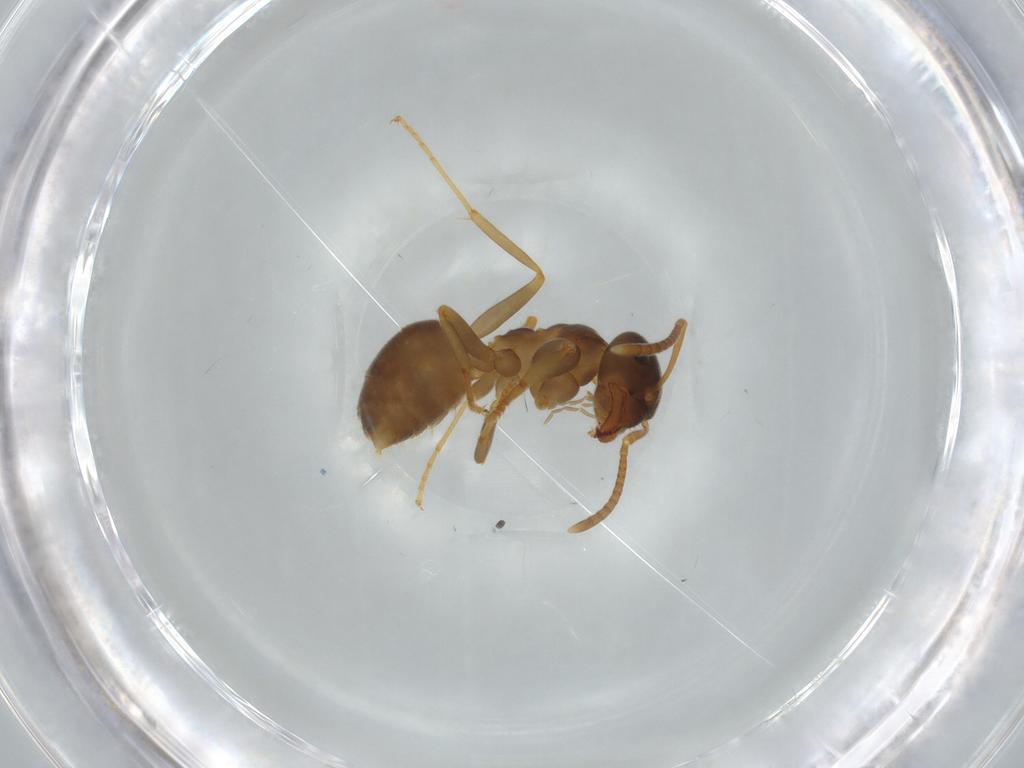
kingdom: Animalia
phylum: Arthropoda
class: Insecta
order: Hymenoptera
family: Formicidae
